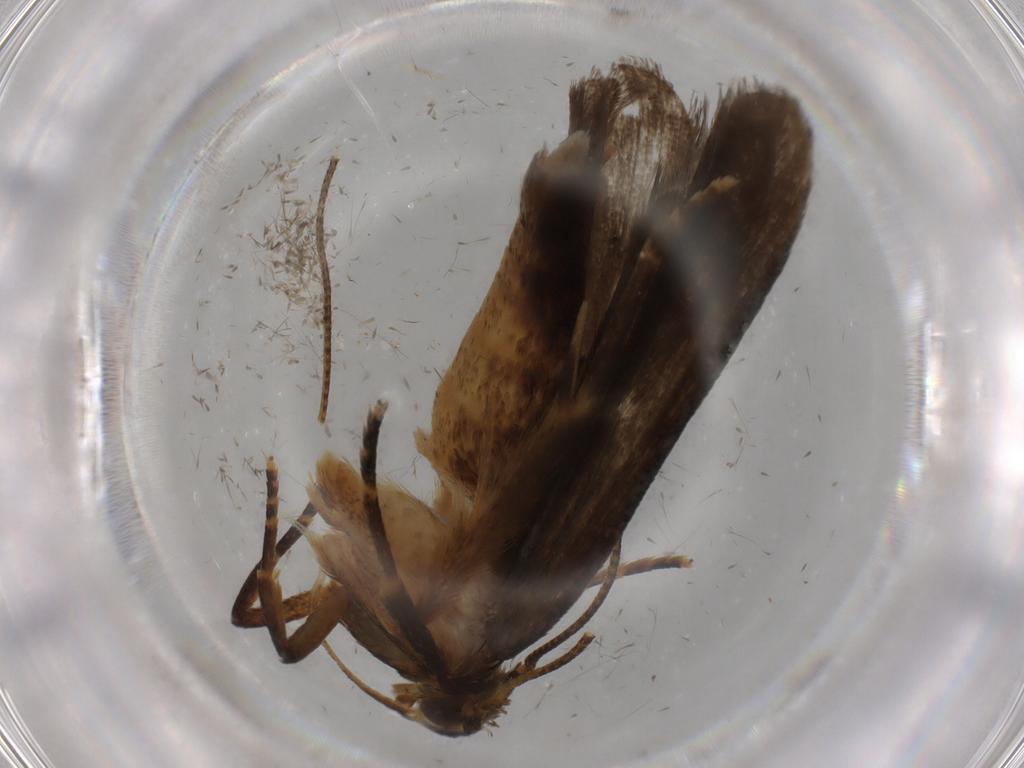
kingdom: Animalia
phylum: Arthropoda
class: Insecta
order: Lepidoptera
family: Autostichidae
